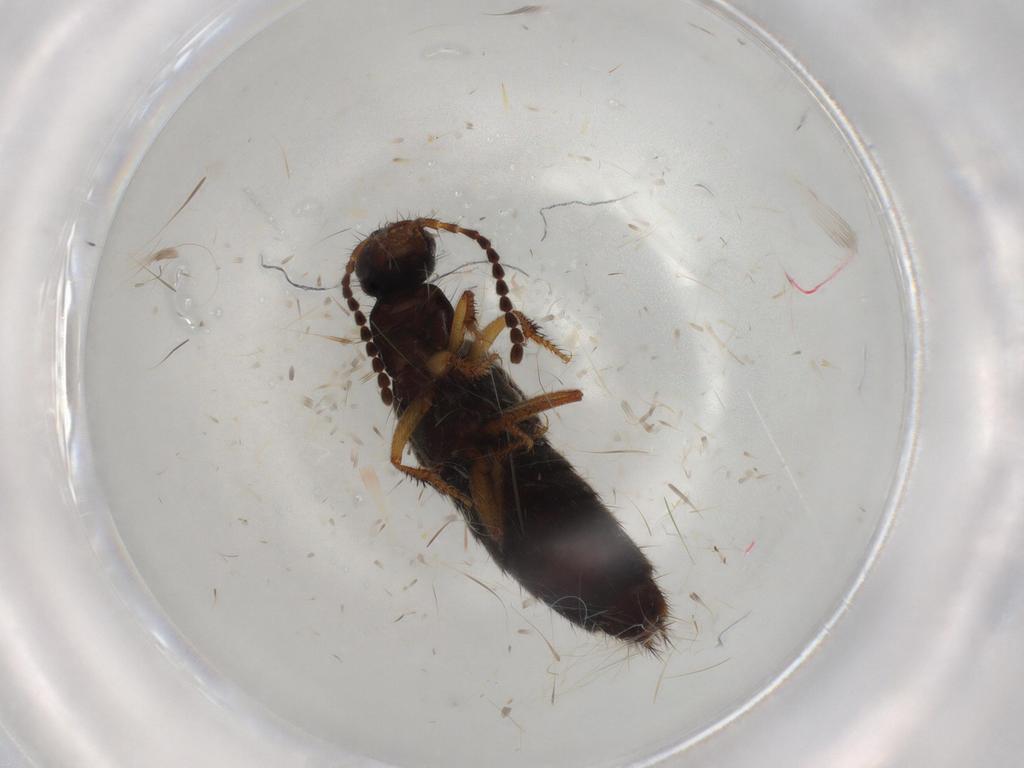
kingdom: Animalia
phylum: Arthropoda
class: Insecta
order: Coleoptera
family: Staphylinidae
